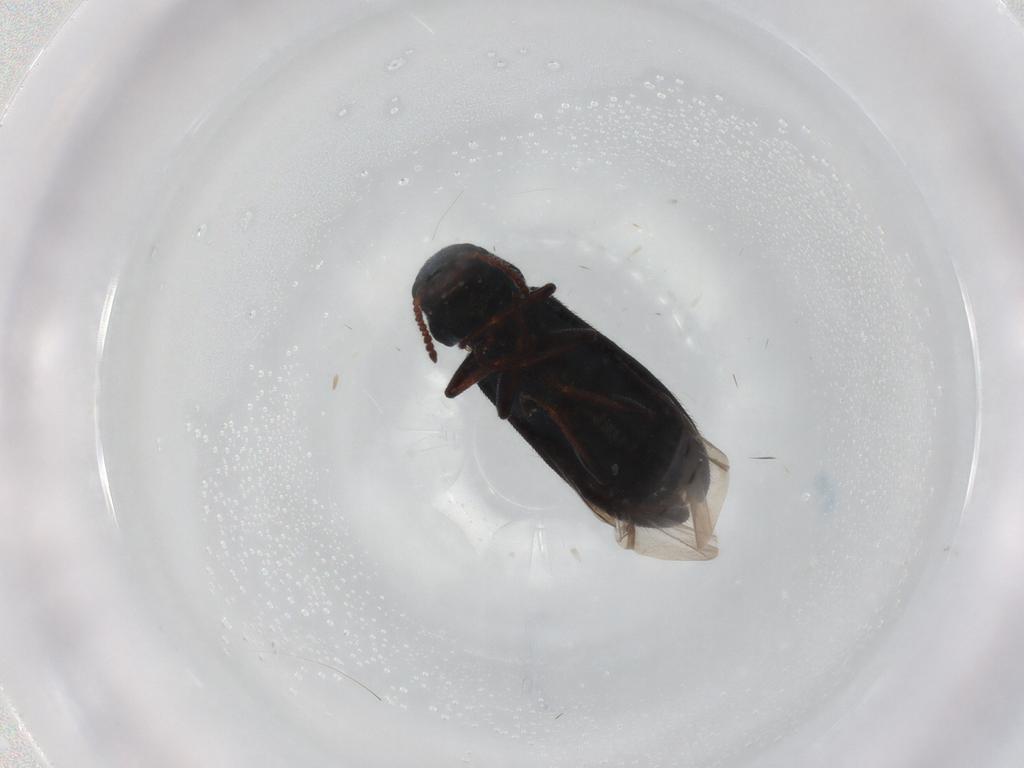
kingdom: Animalia
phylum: Arthropoda
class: Insecta
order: Coleoptera
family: Melyridae
